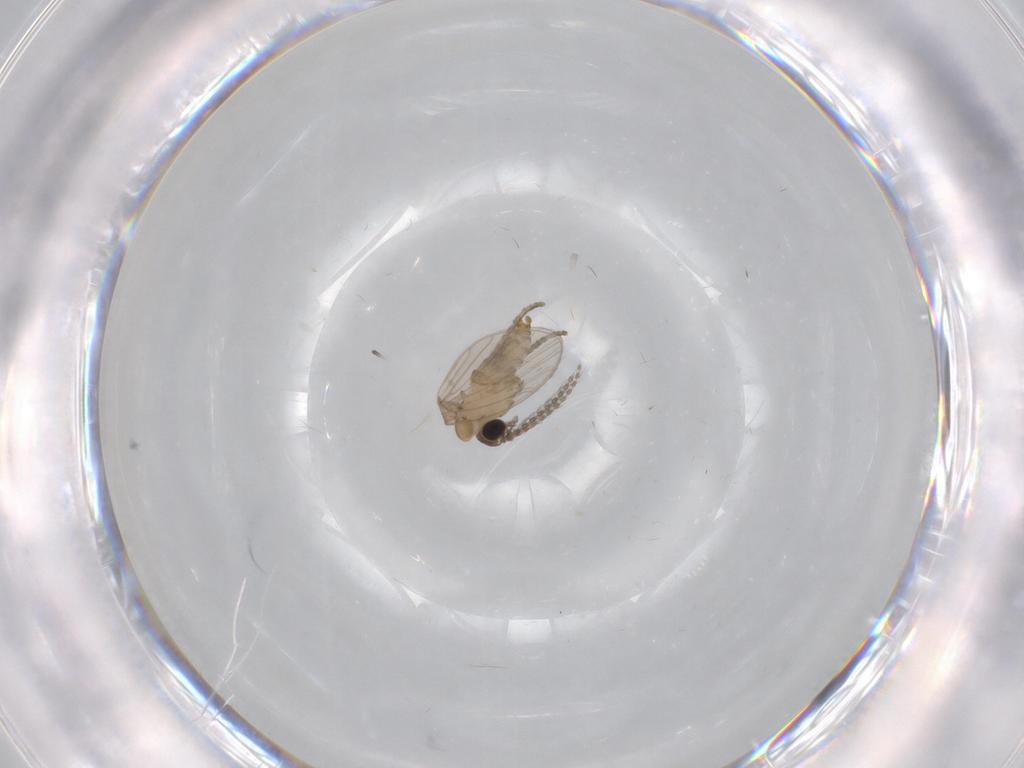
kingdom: Animalia
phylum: Arthropoda
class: Insecta
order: Diptera
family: Psychodidae
